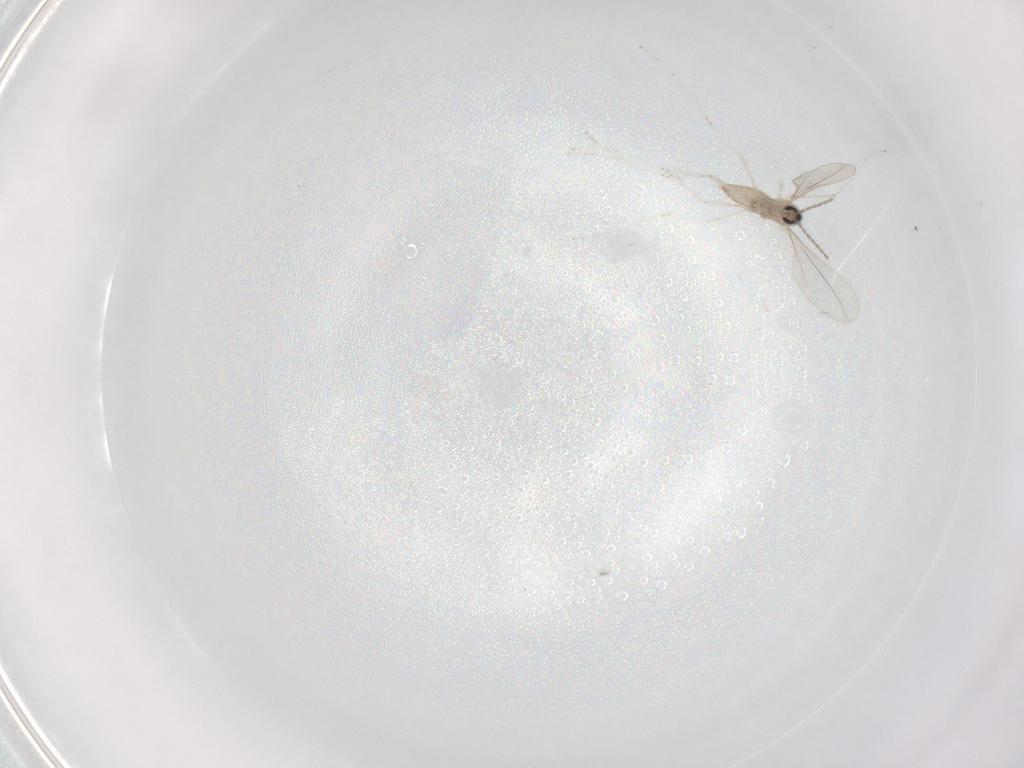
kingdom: Animalia
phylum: Arthropoda
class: Insecta
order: Diptera
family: Cecidomyiidae
